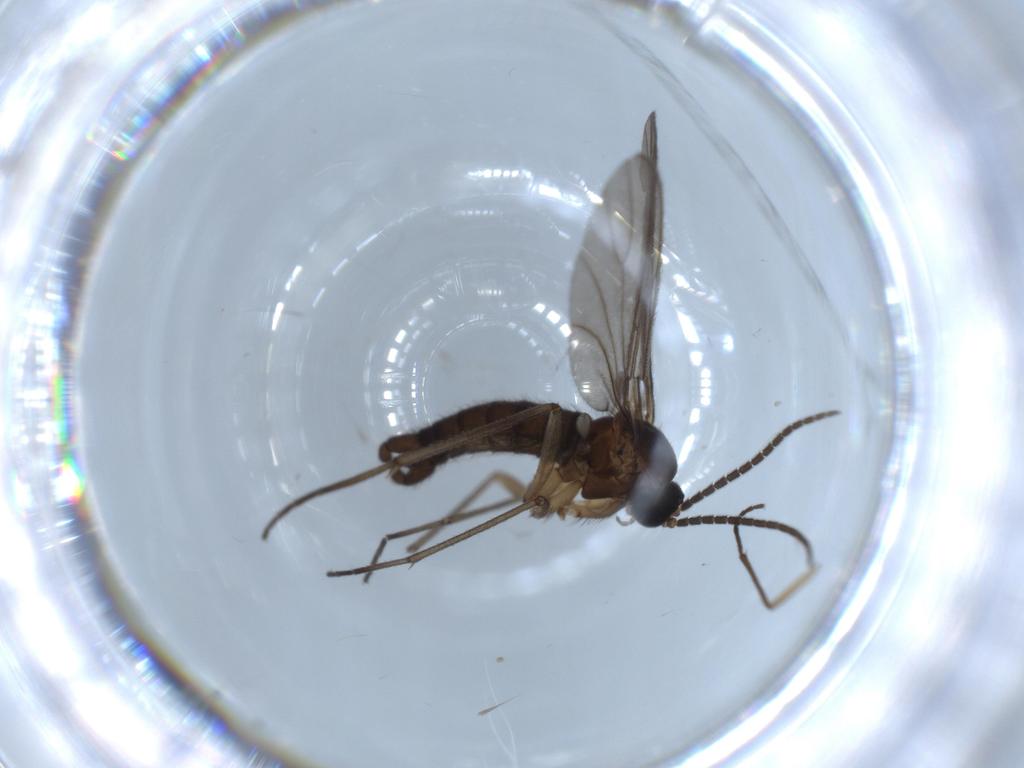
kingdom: Animalia
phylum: Arthropoda
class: Insecta
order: Diptera
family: Sciaridae
